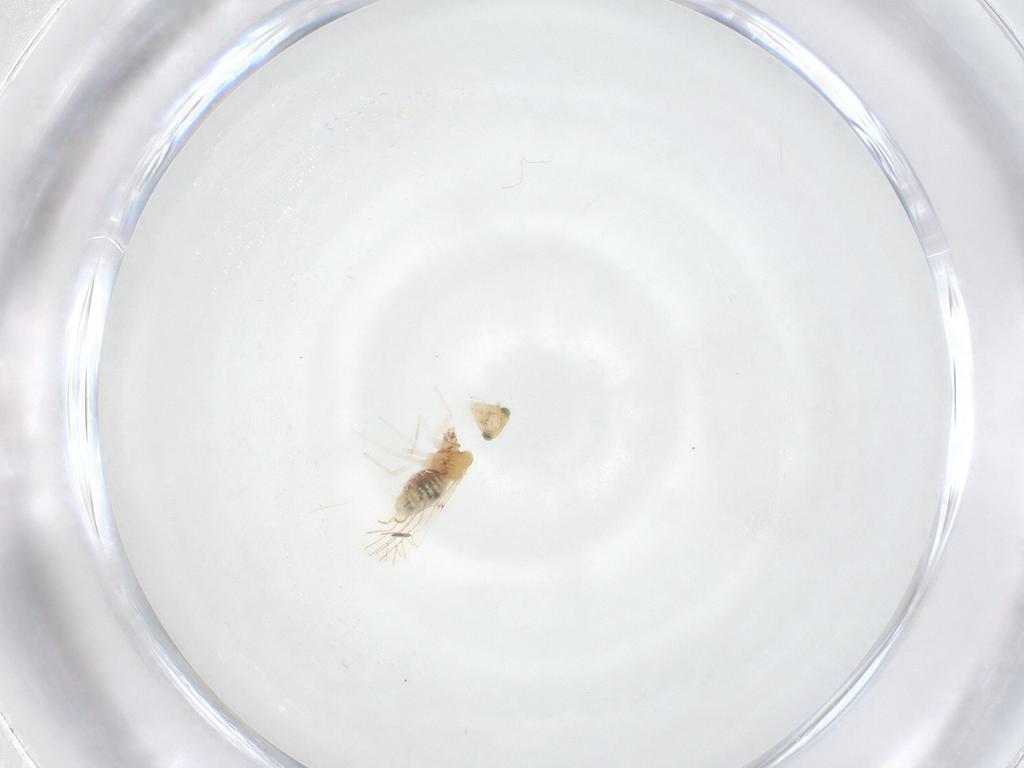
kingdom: Animalia
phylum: Arthropoda
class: Insecta
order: Psocodea
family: Lachesillidae
